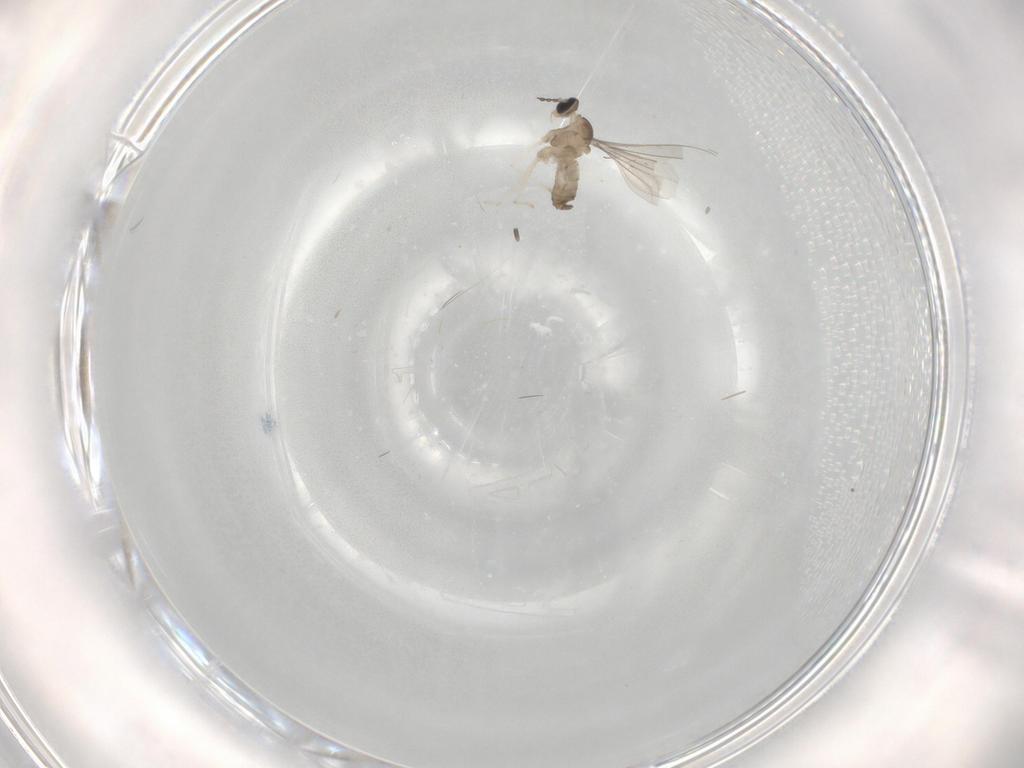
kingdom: Animalia
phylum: Arthropoda
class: Insecta
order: Diptera
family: Cecidomyiidae
